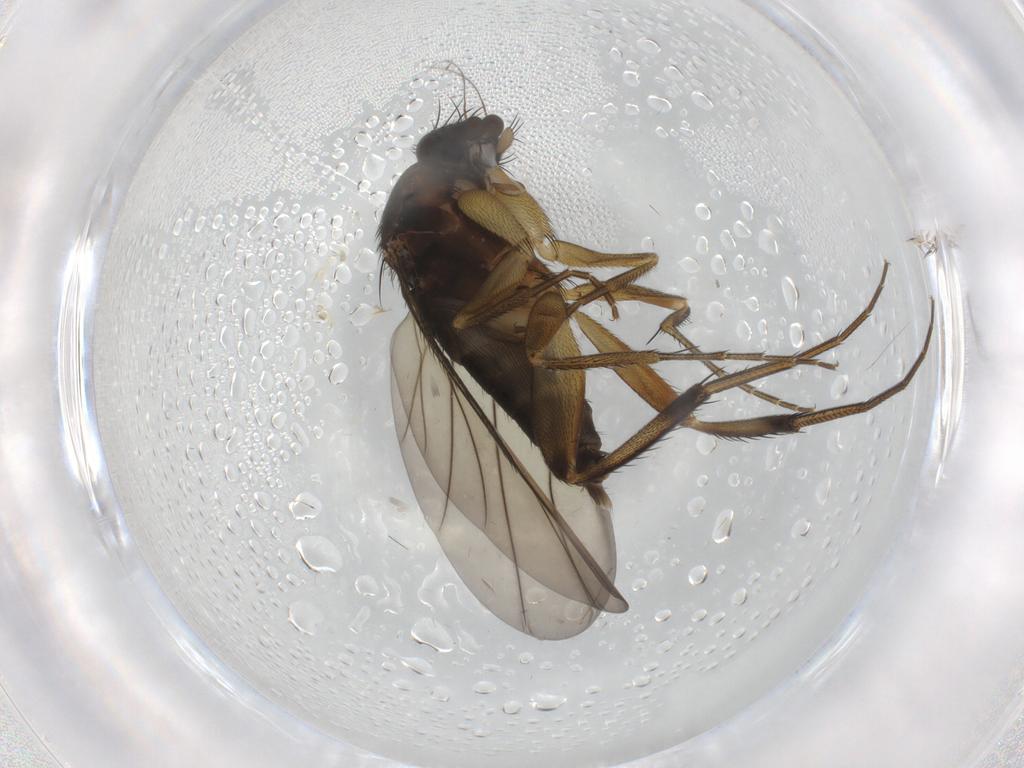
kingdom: Animalia
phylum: Arthropoda
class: Insecta
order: Diptera
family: Phoridae
